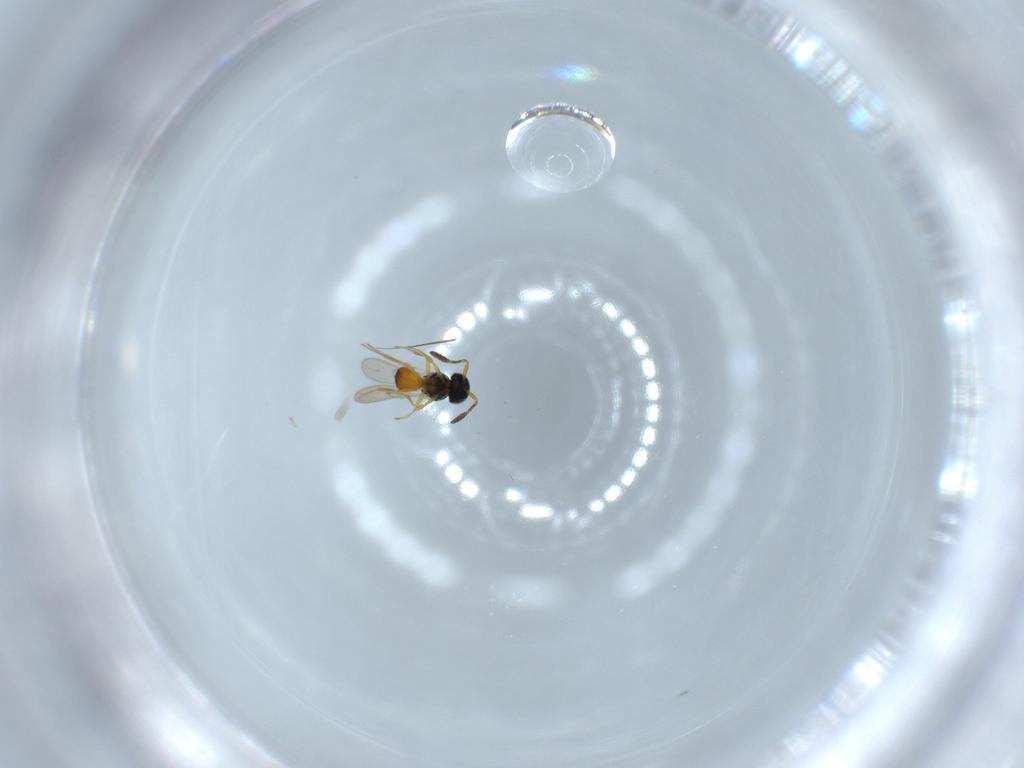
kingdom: Animalia
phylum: Arthropoda
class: Insecta
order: Hymenoptera
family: Scelionidae
